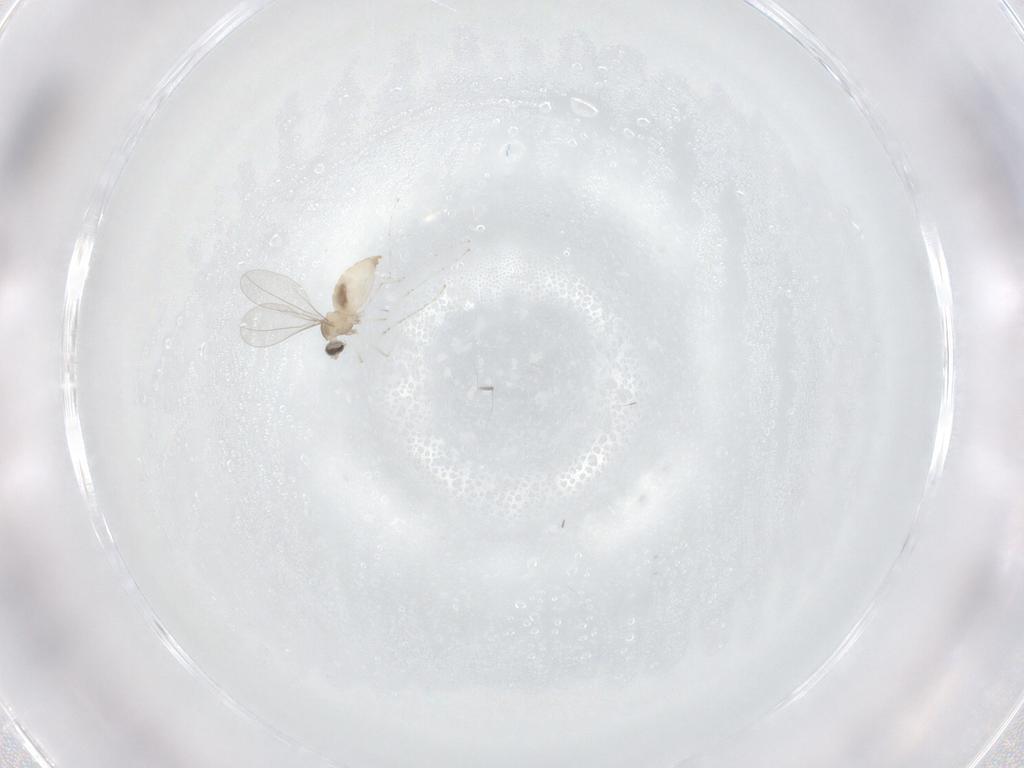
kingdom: Animalia
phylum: Arthropoda
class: Insecta
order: Diptera
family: Cecidomyiidae
